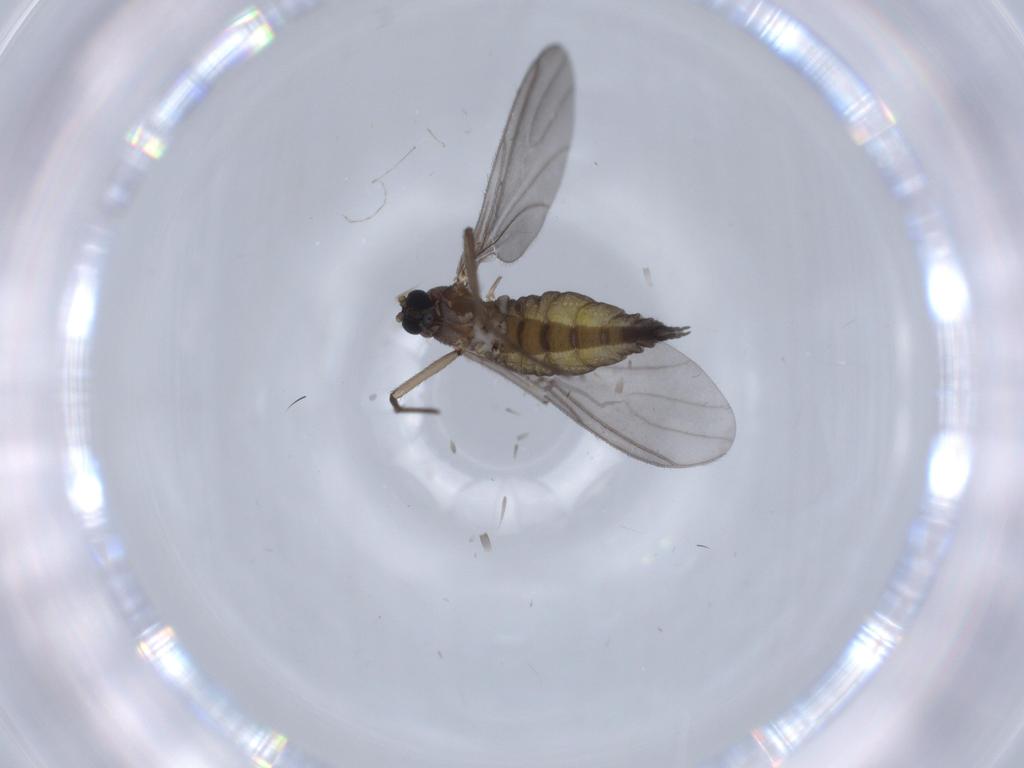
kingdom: Animalia
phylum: Arthropoda
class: Insecta
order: Diptera
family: Sciaridae
